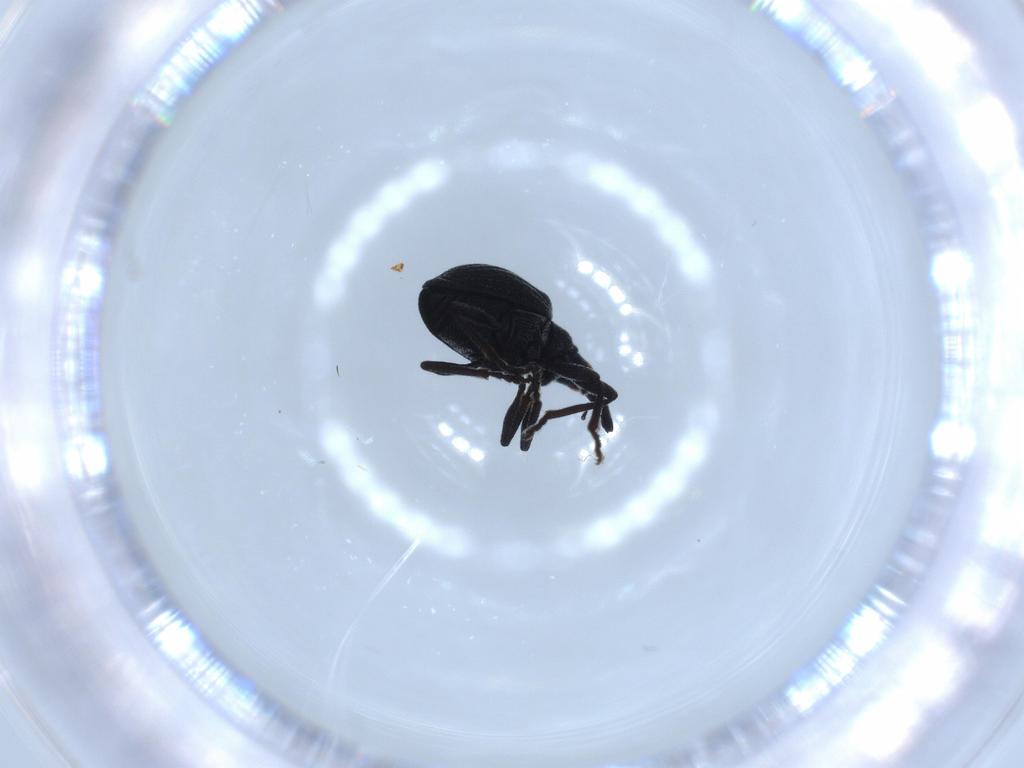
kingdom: Animalia
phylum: Arthropoda
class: Insecta
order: Coleoptera
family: Brentidae
